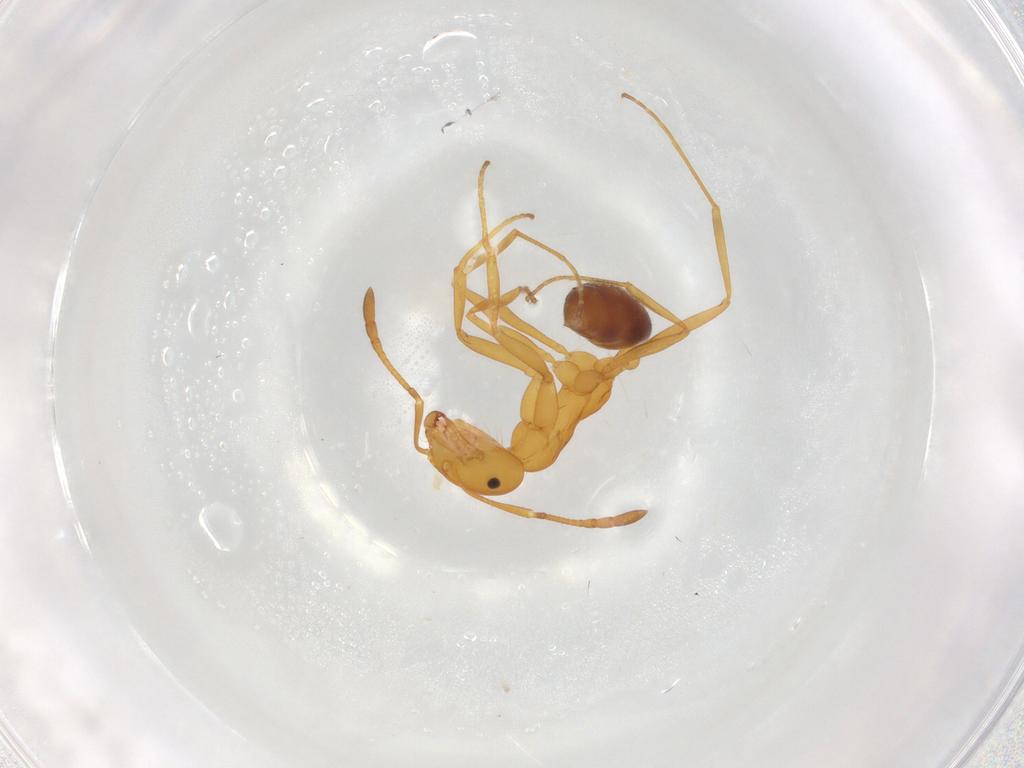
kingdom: Animalia
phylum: Arthropoda
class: Insecta
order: Hymenoptera
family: Formicidae
